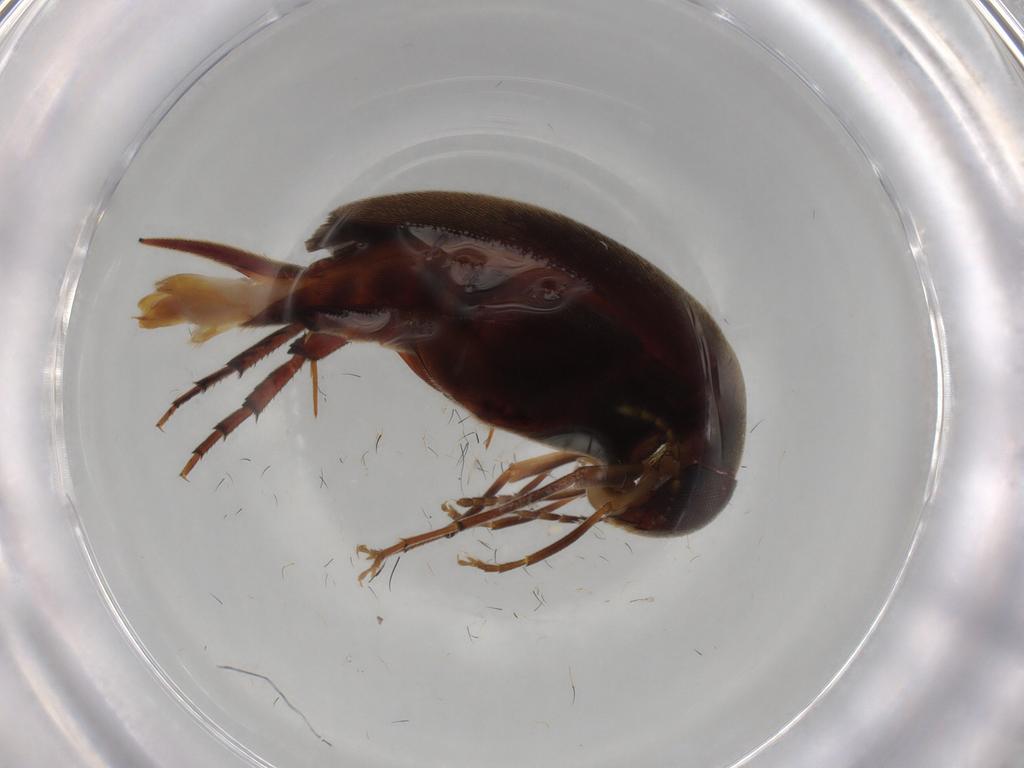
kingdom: Animalia
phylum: Arthropoda
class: Insecta
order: Coleoptera
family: Mordellidae
